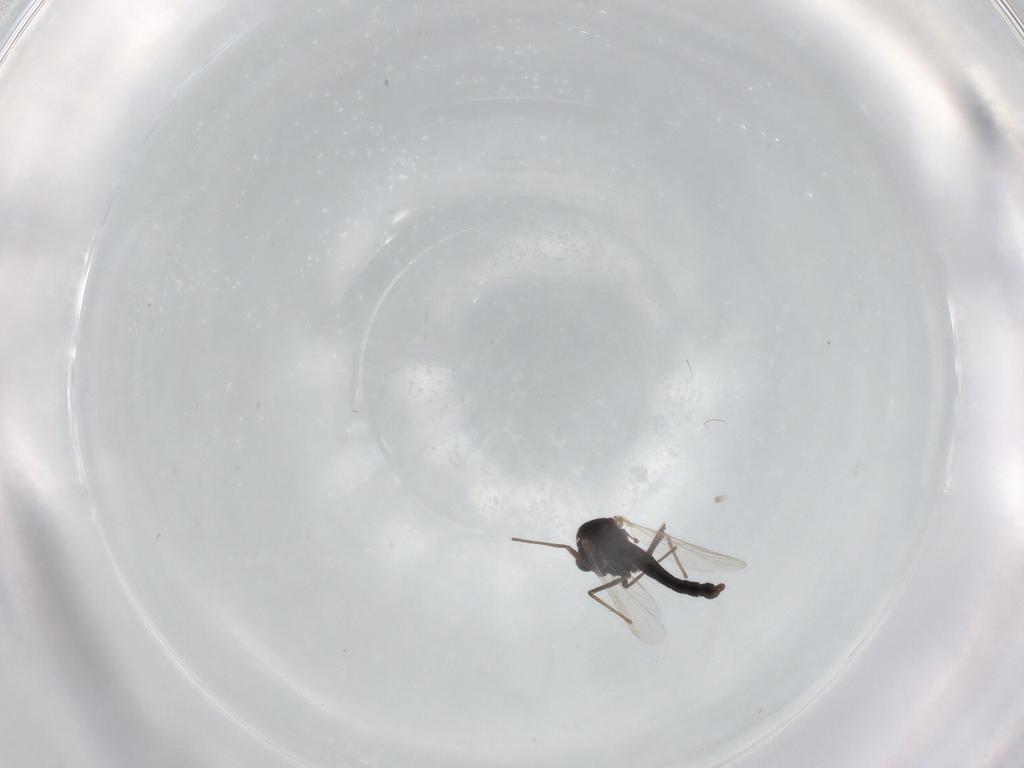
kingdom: Animalia
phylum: Arthropoda
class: Insecta
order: Diptera
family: Chironomidae
